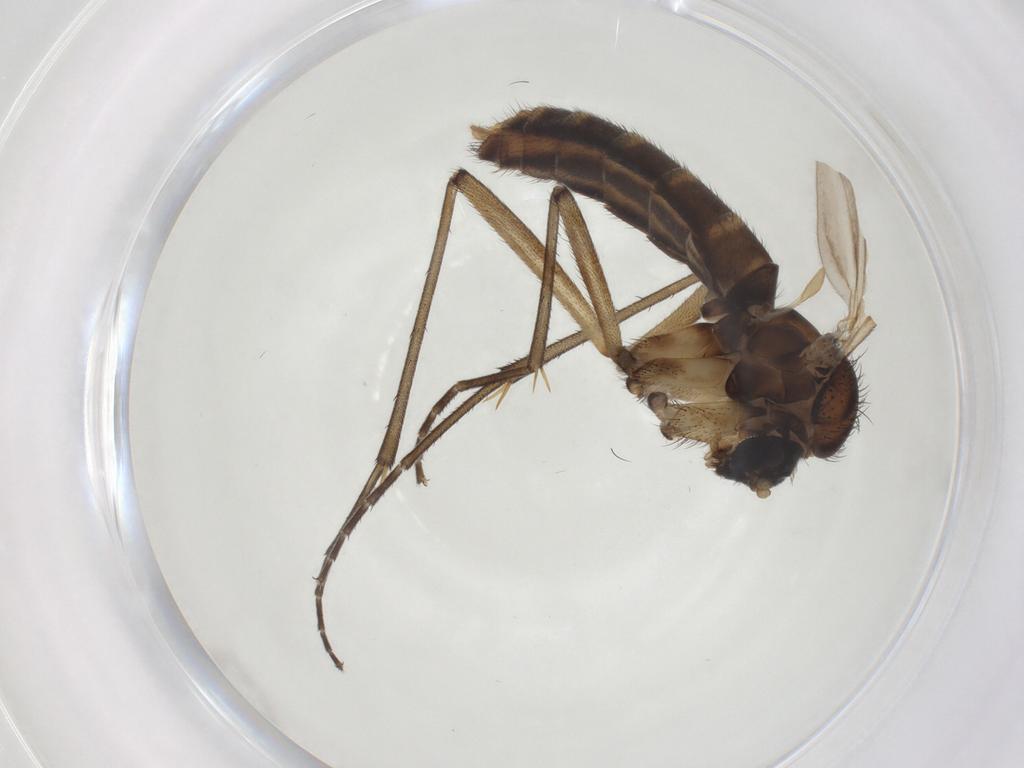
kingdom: Animalia
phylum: Arthropoda
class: Insecta
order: Diptera
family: Mycetophilidae
